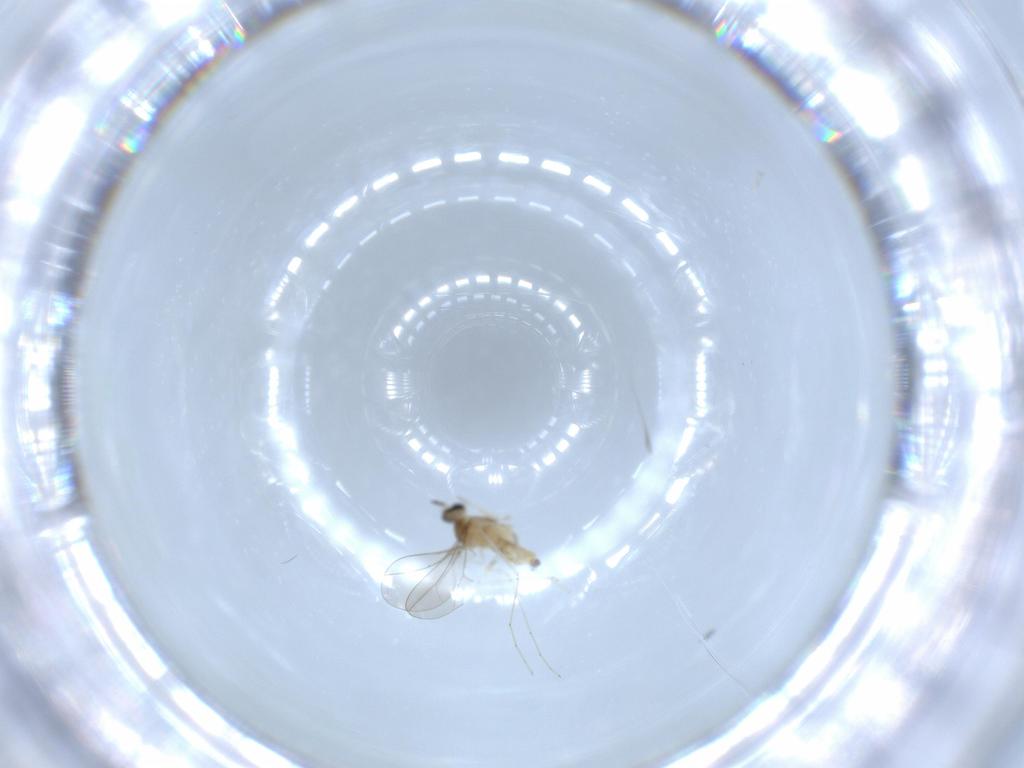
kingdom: Animalia
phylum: Arthropoda
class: Insecta
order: Diptera
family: Cecidomyiidae
